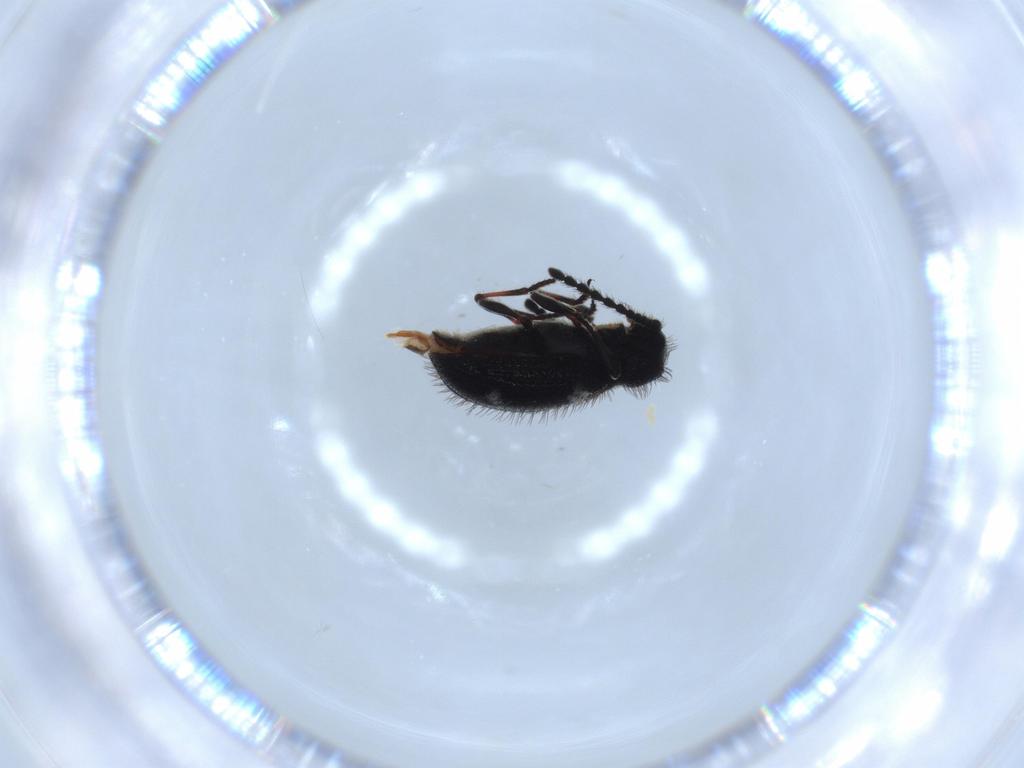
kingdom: Animalia
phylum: Arthropoda
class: Insecta
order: Coleoptera
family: Ptinidae
